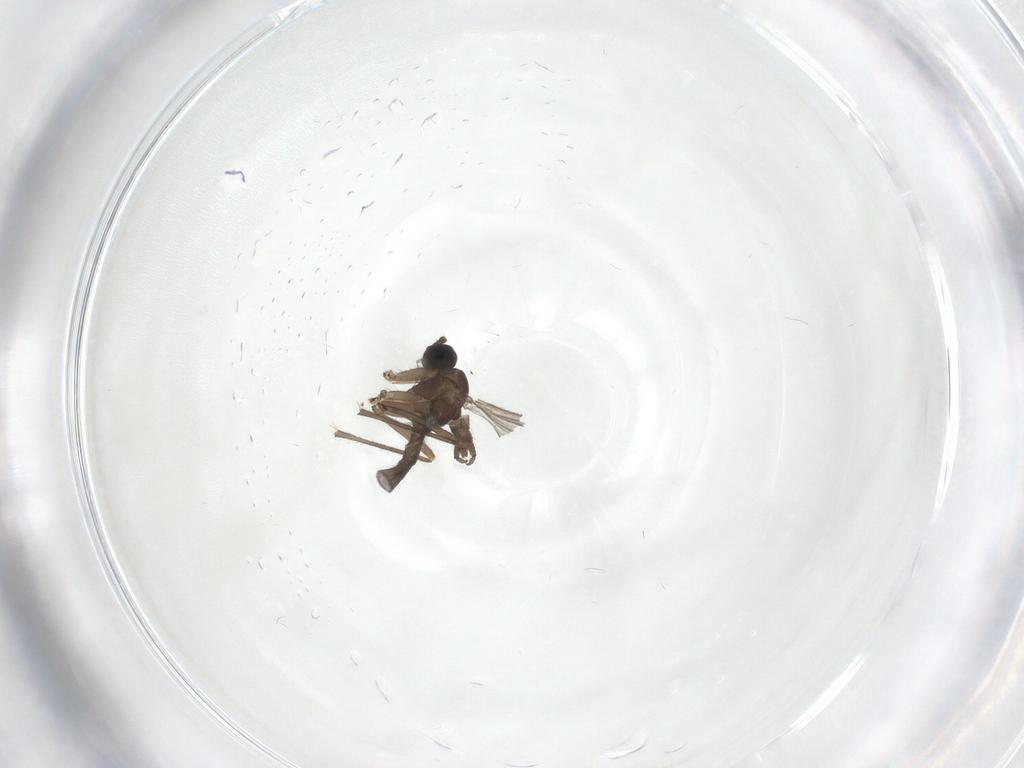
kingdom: Animalia
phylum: Arthropoda
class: Insecta
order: Diptera
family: Sciaridae
